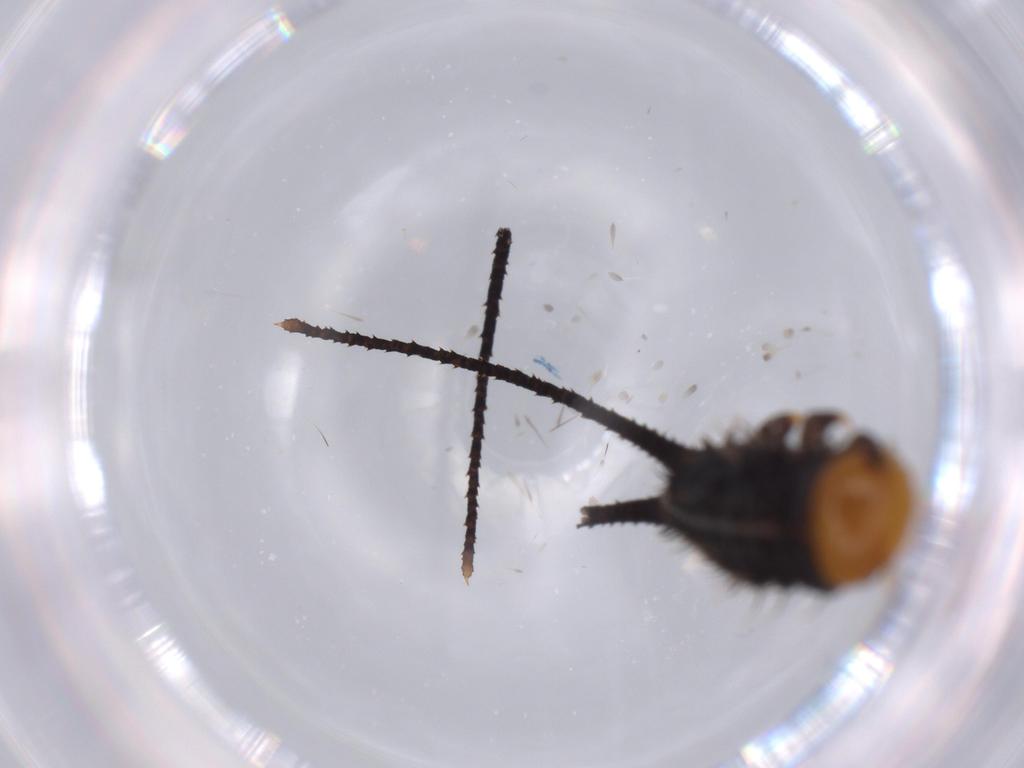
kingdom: Animalia
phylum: Arthropoda
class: Insecta
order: Coleoptera
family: Erotylidae
